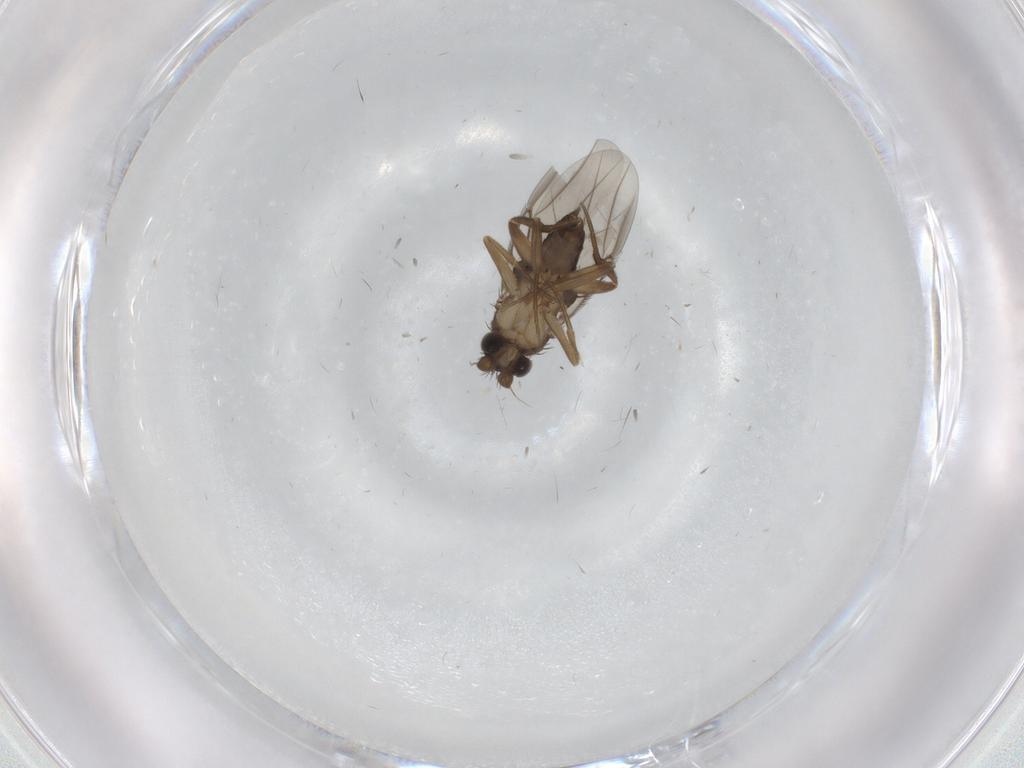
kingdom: Animalia
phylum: Arthropoda
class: Insecta
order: Diptera
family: Phoridae
